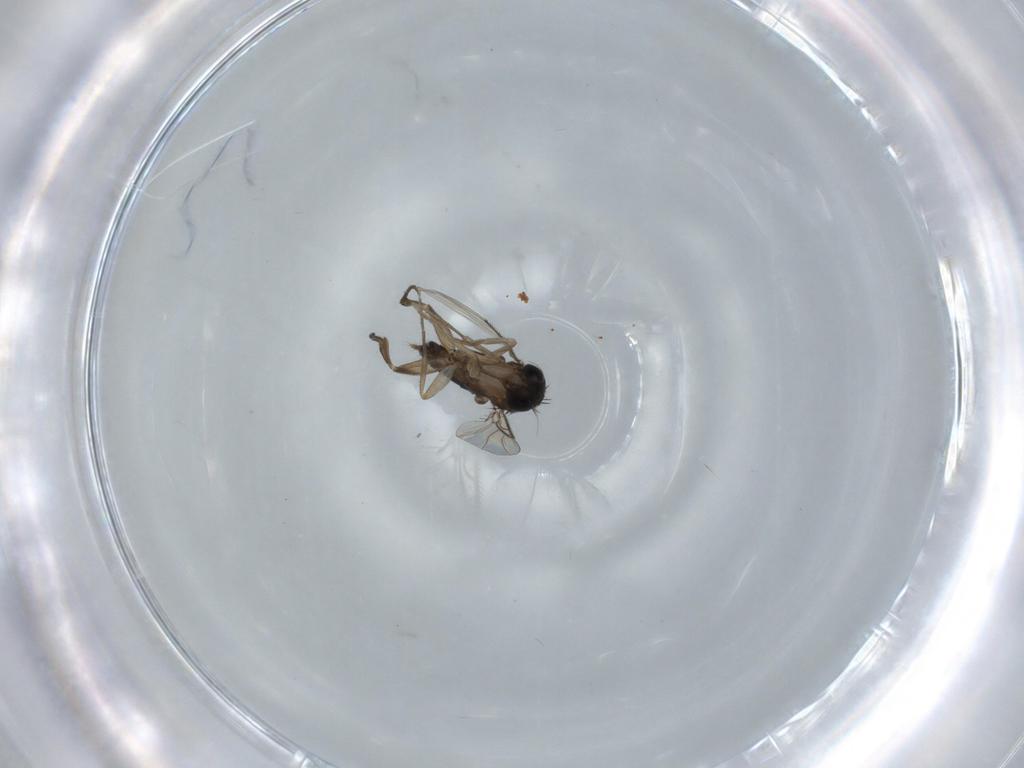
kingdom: Animalia
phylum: Arthropoda
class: Insecta
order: Diptera
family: Phoridae
